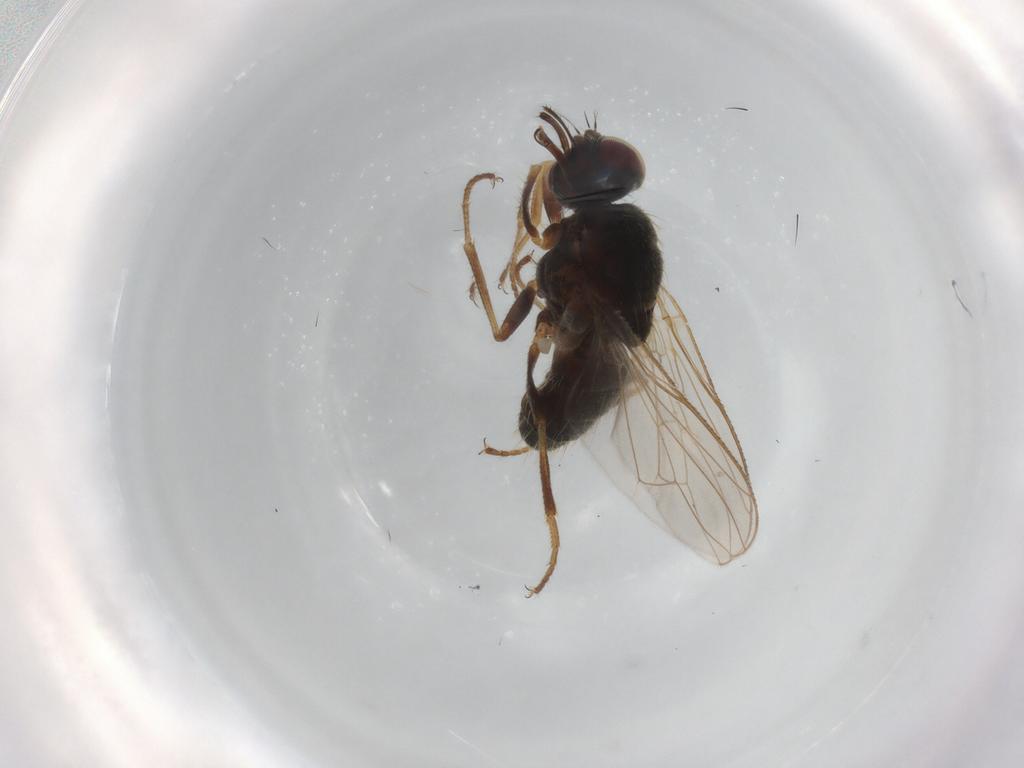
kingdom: Animalia
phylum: Arthropoda
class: Insecta
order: Diptera
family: Muscidae
